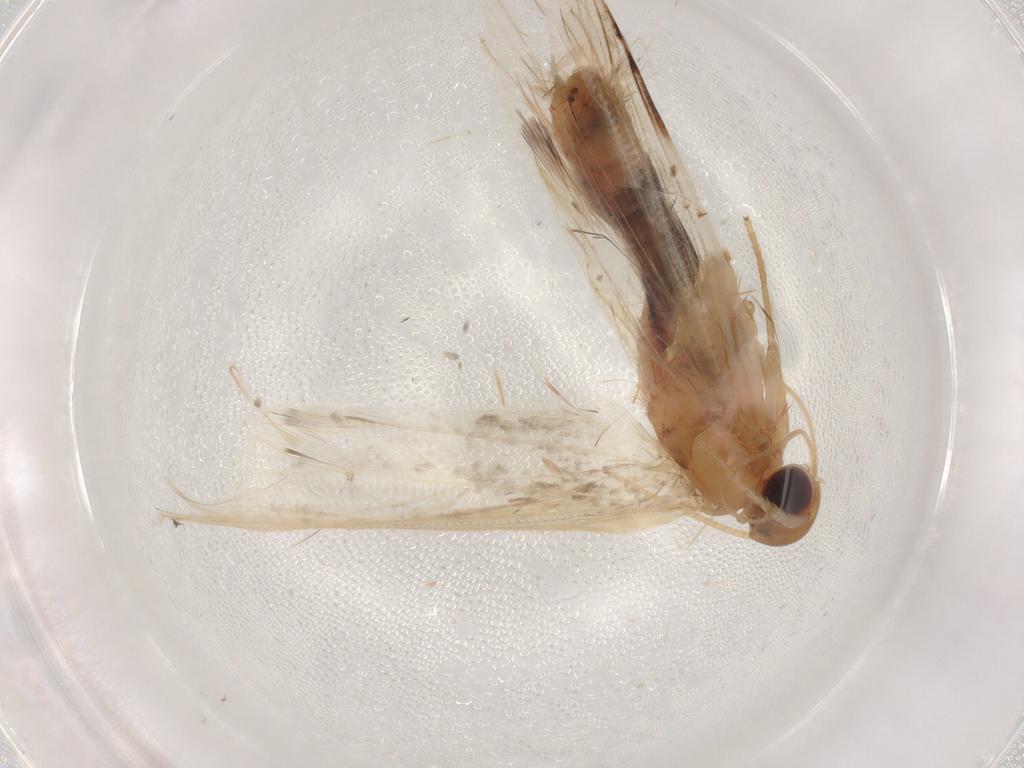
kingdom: Animalia
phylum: Arthropoda
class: Insecta
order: Lepidoptera
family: Lecithoceridae
